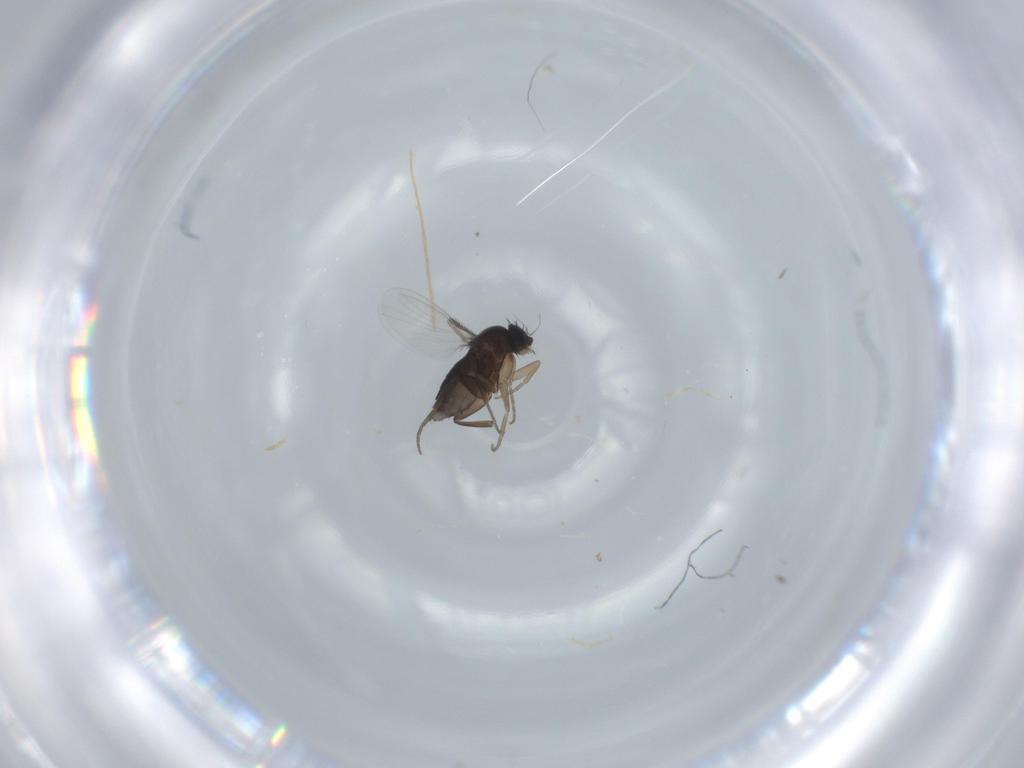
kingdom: Animalia
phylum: Arthropoda
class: Insecta
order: Diptera
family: Phoridae
